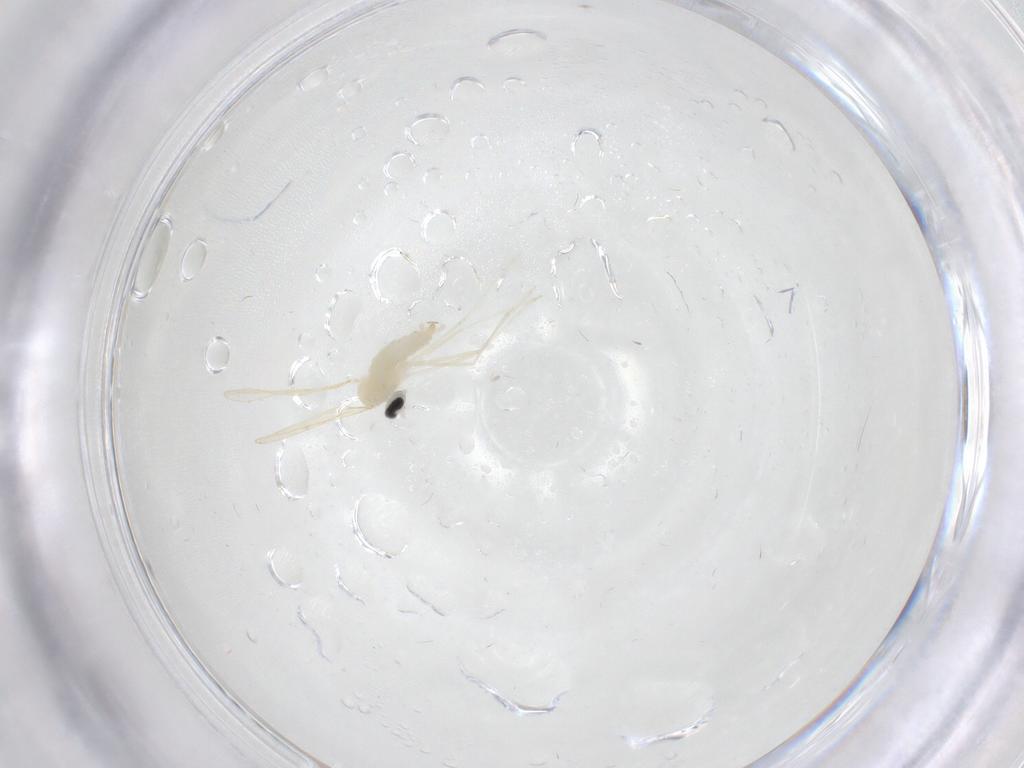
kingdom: Animalia
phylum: Arthropoda
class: Insecta
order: Diptera
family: Cecidomyiidae
